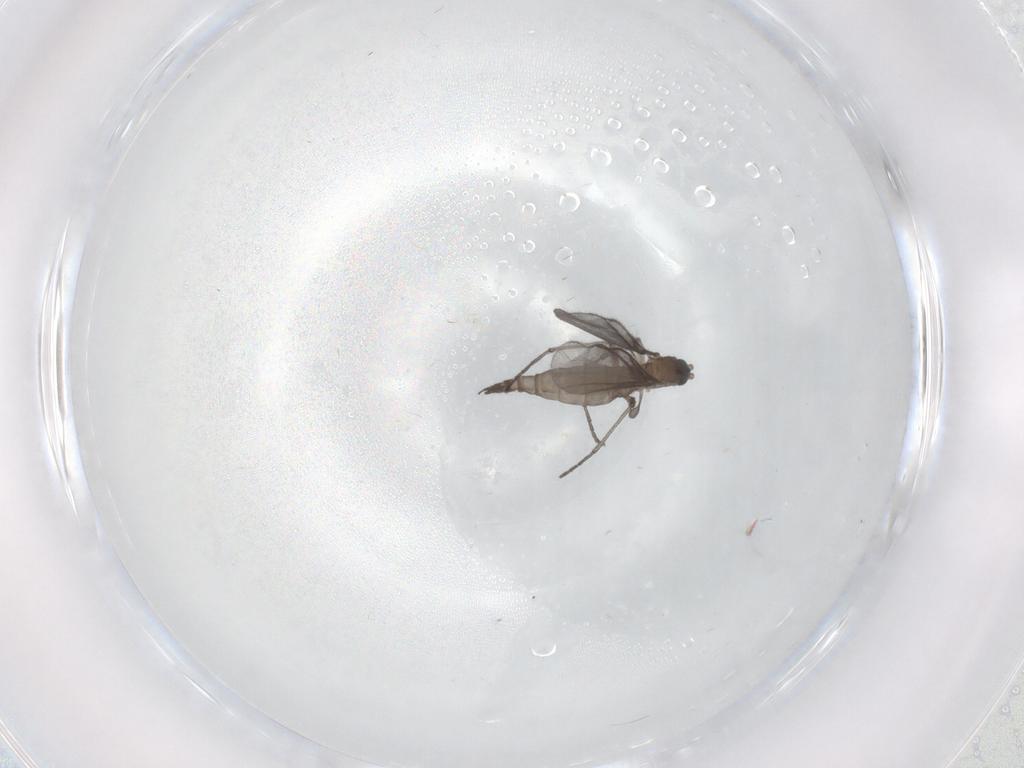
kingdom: Animalia
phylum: Arthropoda
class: Insecta
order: Diptera
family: Sciaridae
